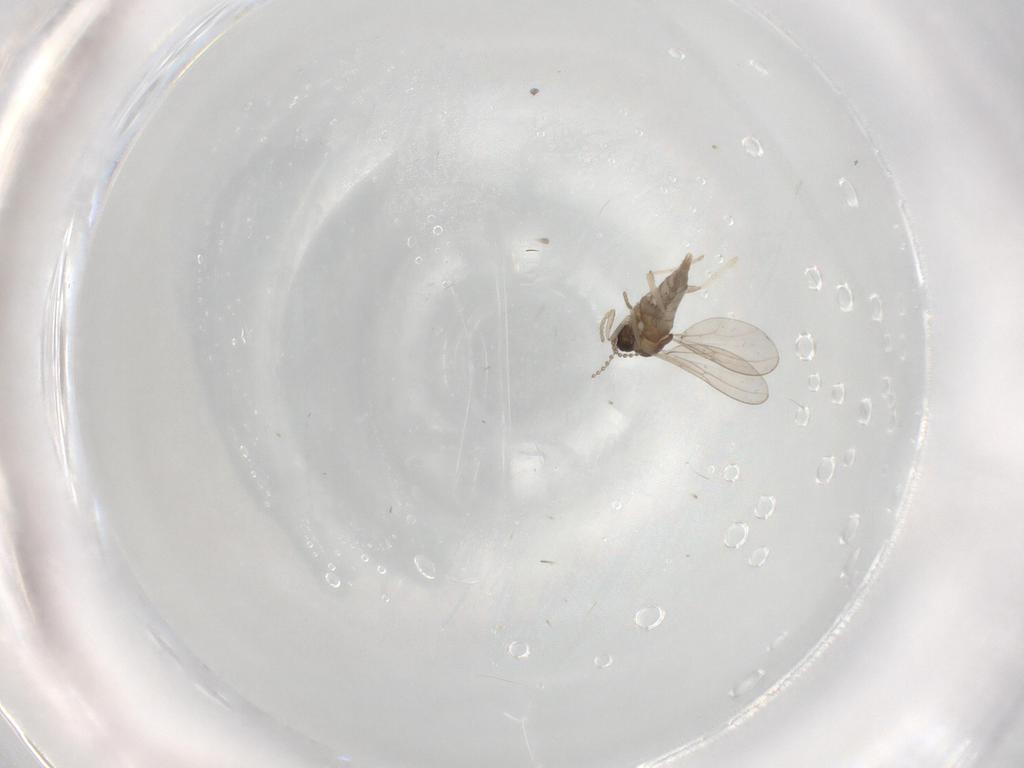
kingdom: Animalia
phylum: Arthropoda
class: Insecta
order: Diptera
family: Cecidomyiidae
